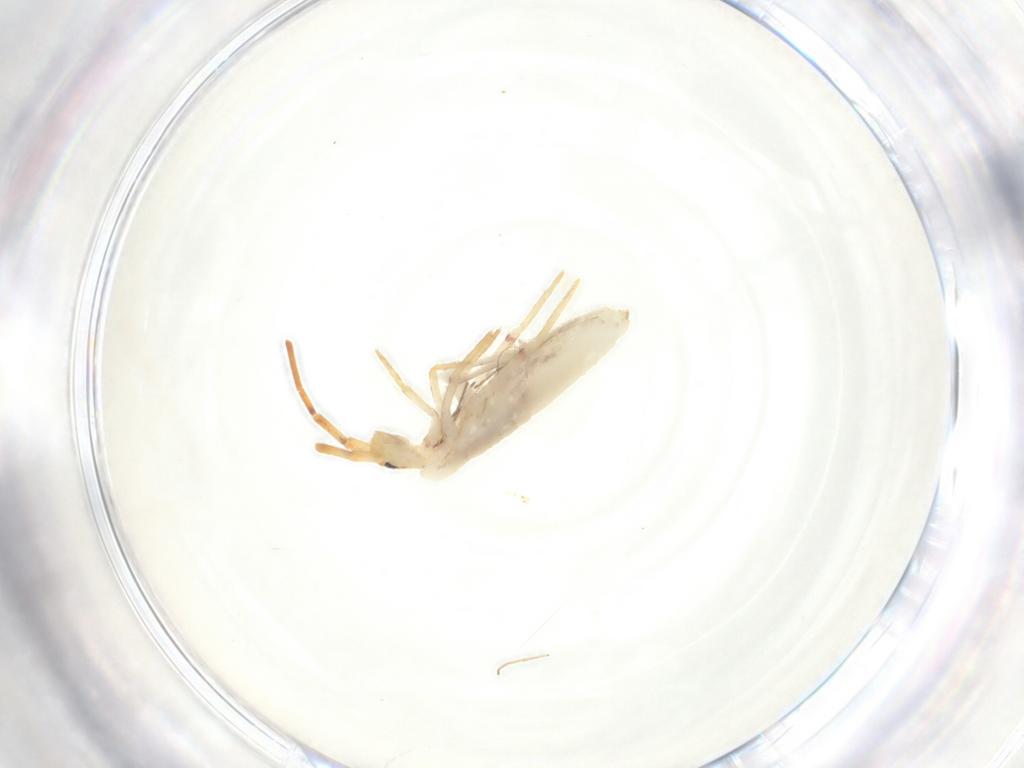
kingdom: Animalia
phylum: Arthropoda
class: Collembola
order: Poduromorpha
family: Hypogastruridae
